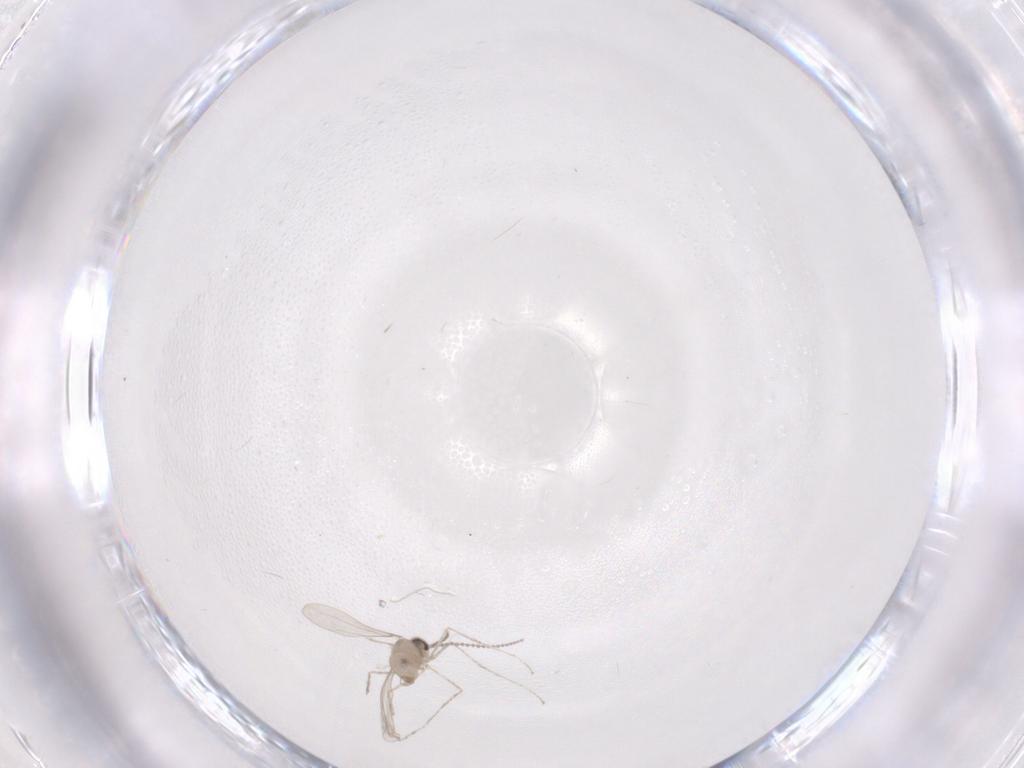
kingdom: Animalia
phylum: Arthropoda
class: Insecta
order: Diptera
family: Cecidomyiidae
